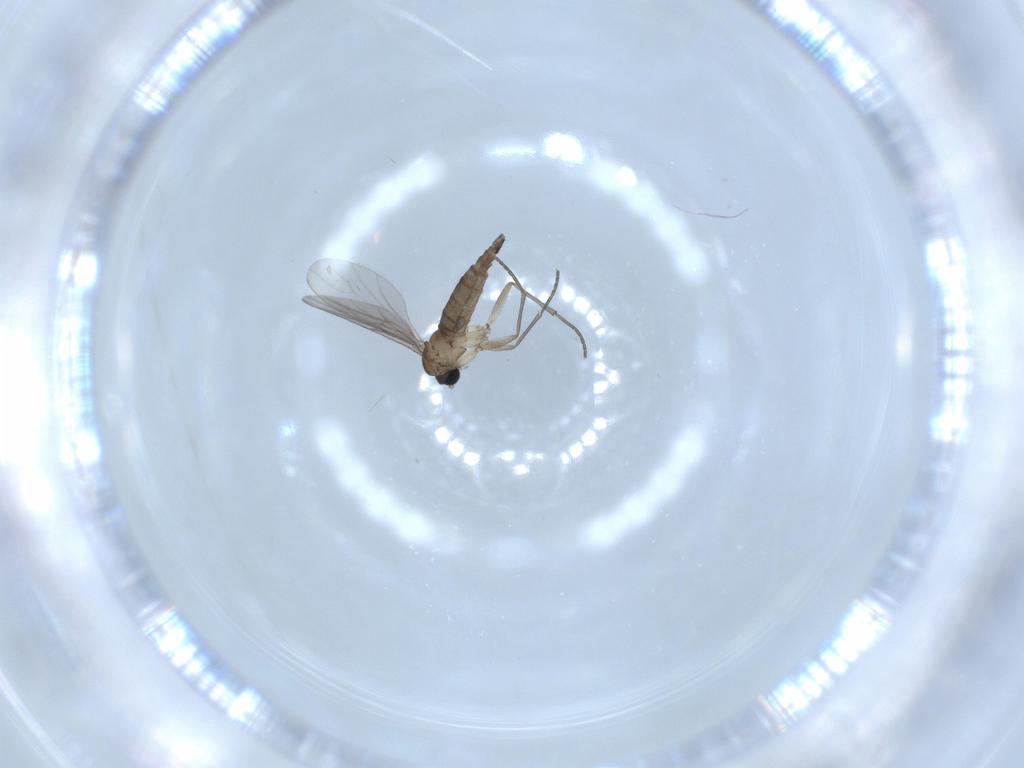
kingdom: Animalia
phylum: Arthropoda
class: Insecta
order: Diptera
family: Sciaridae
